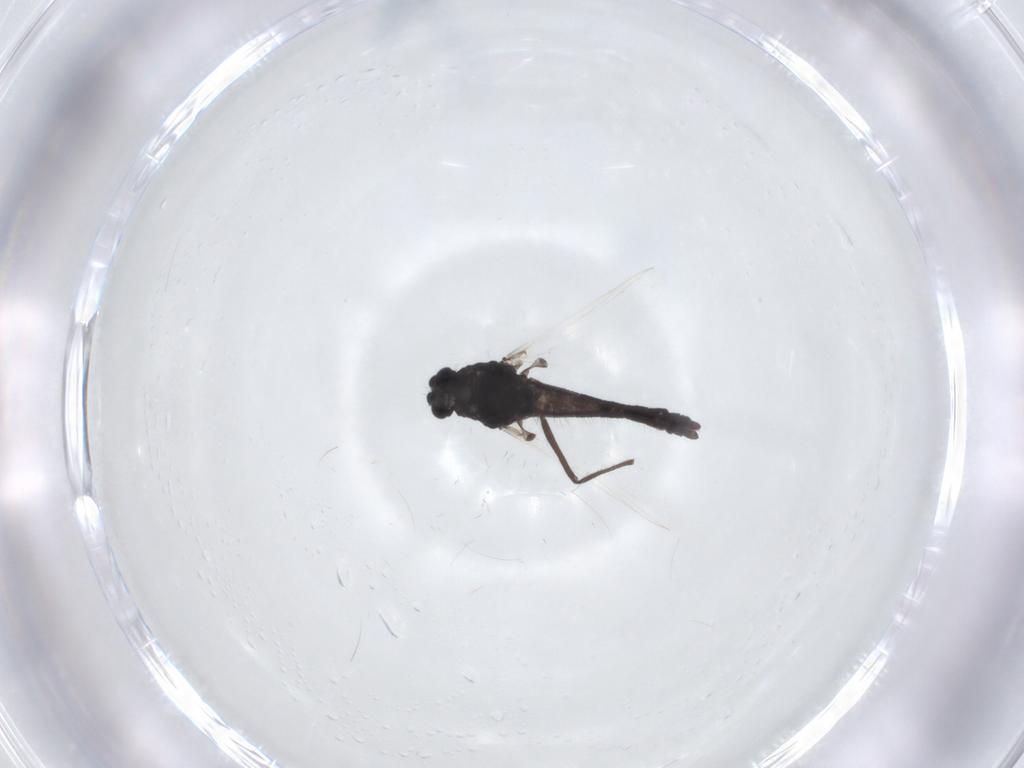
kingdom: Animalia
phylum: Arthropoda
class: Insecta
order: Diptera
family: Chironomidae
